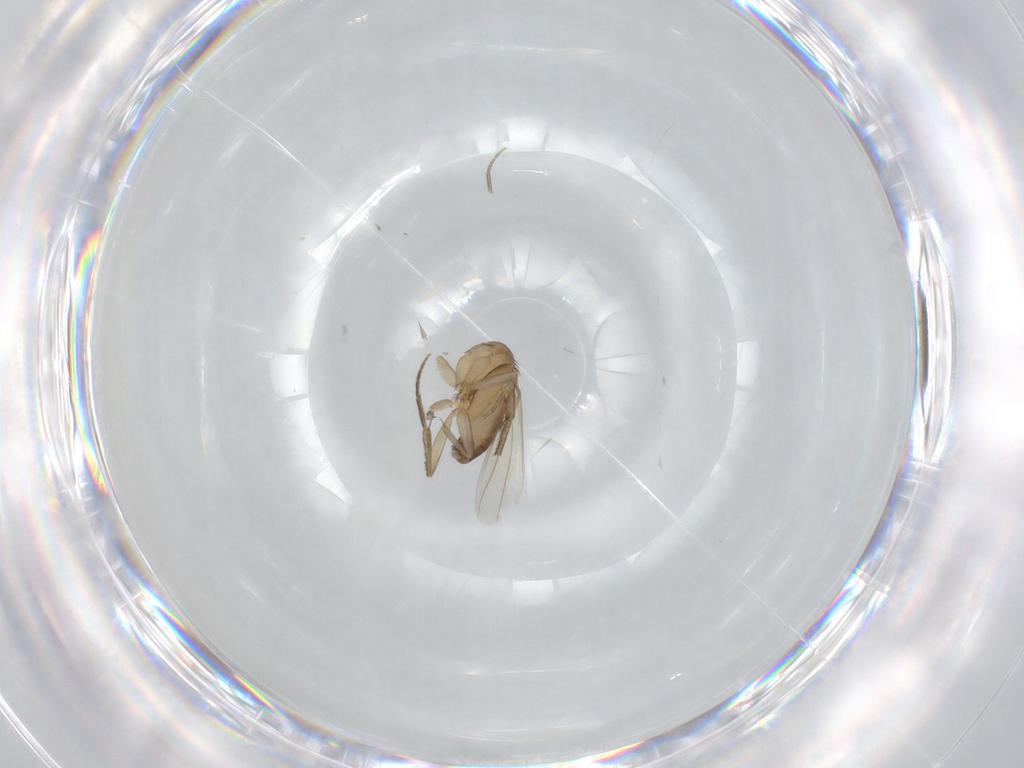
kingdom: Animalia
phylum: Arthropoda
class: Insecta
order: Diptera
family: Phoridae
